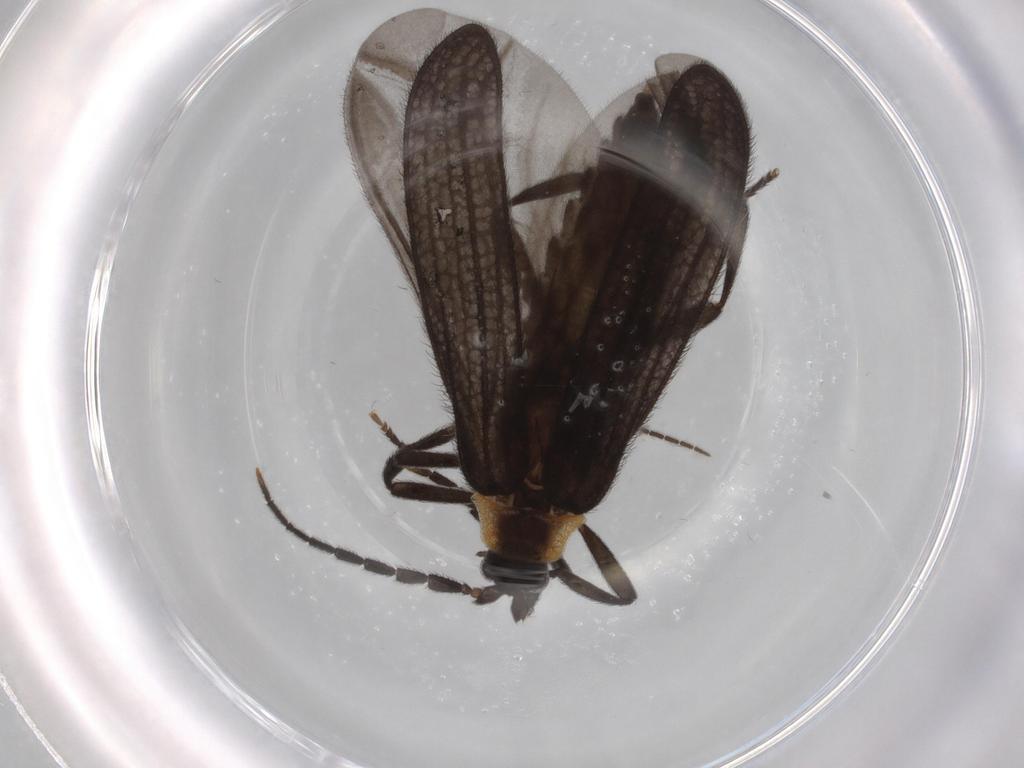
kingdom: Animalia
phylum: Arthropoda
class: Insecta
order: Coleoptera
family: Lycidae
